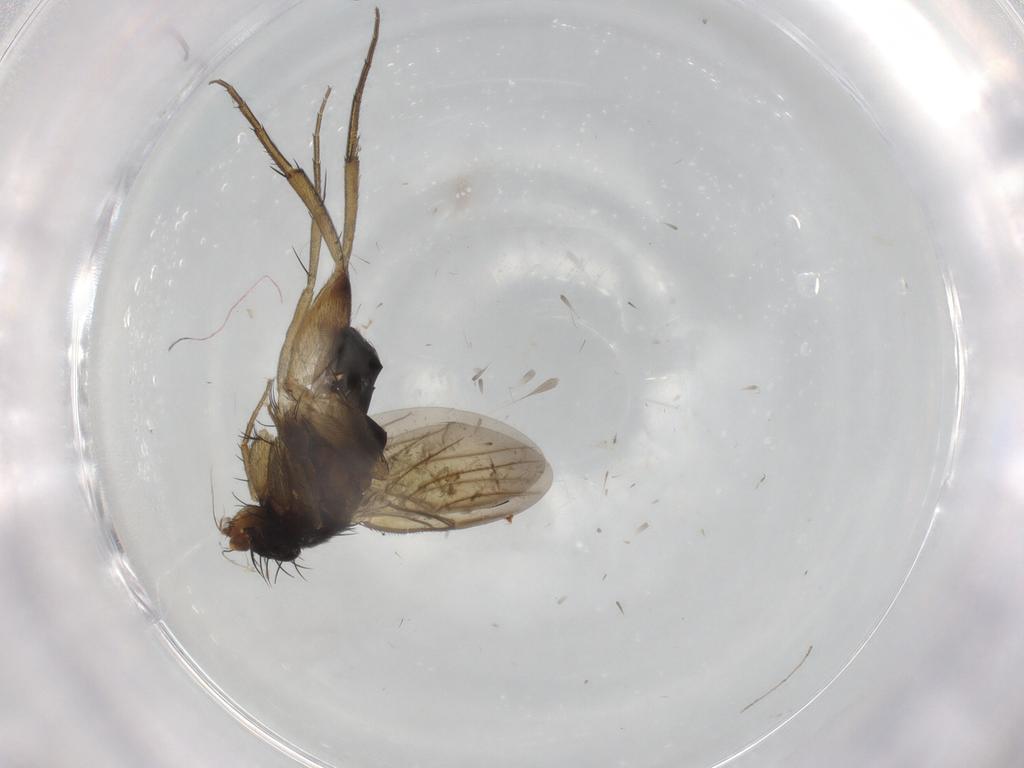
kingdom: Animalia
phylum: Arthropoda
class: Insecta
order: Diptera
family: Phoridae
